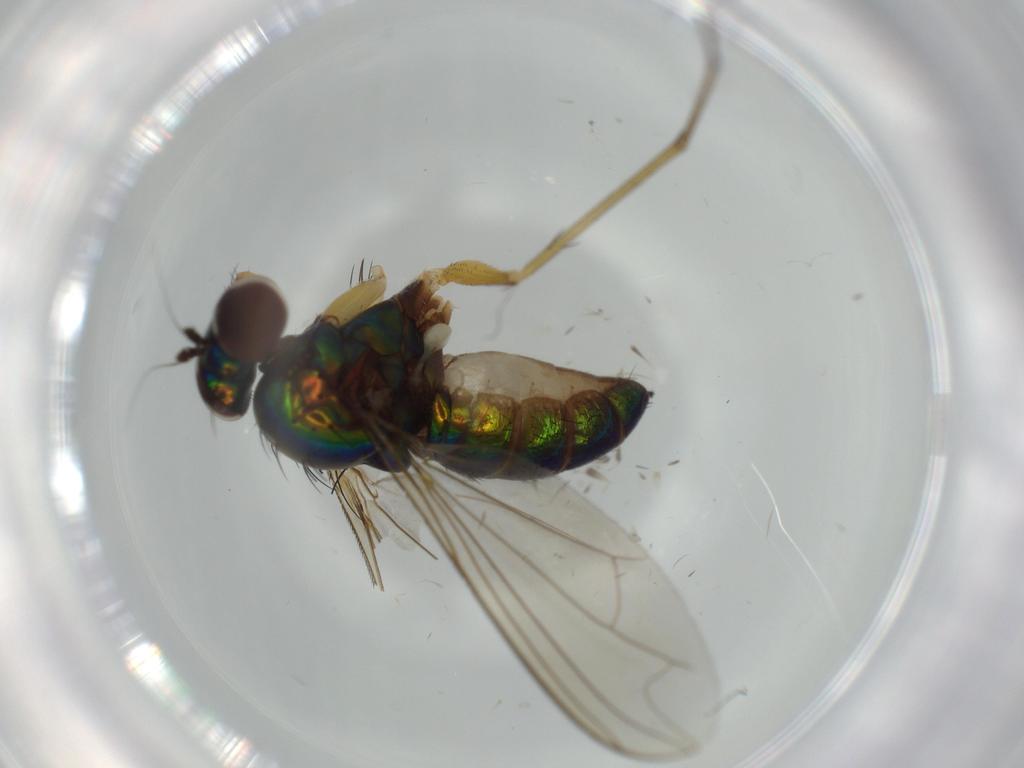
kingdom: Animalia
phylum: Arthropoda
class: Insecta
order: Diptera
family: Dolichopodidae
